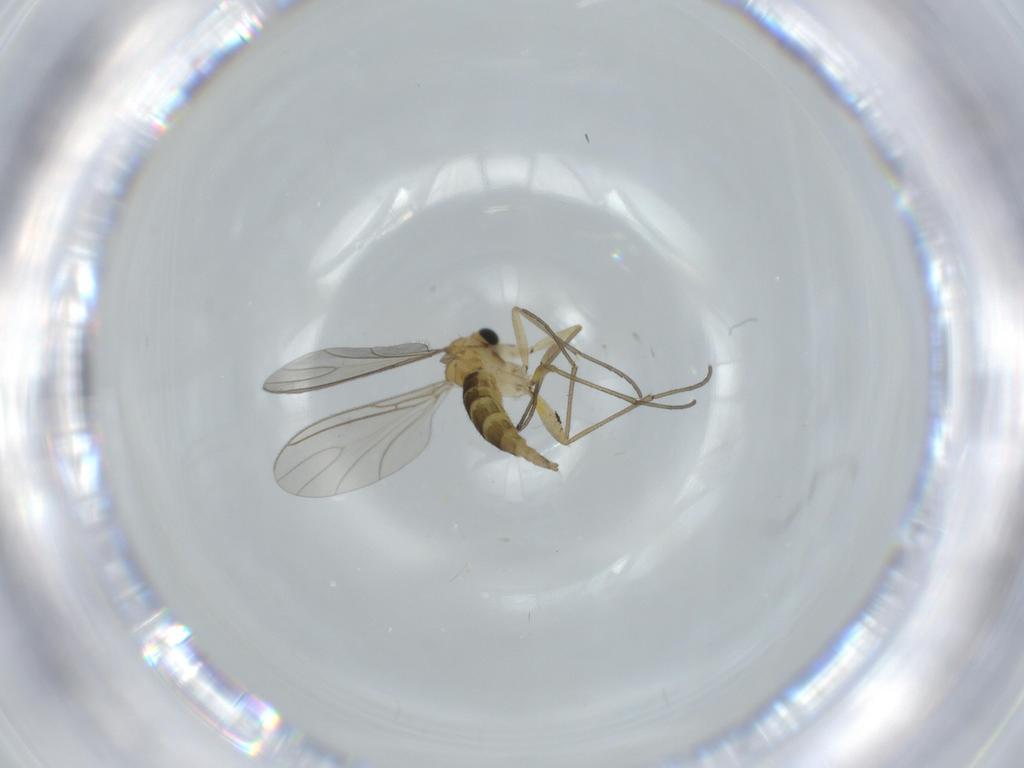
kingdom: Animalia
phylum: Arthropoda
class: Insecta
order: Diptera
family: Sciaridae
